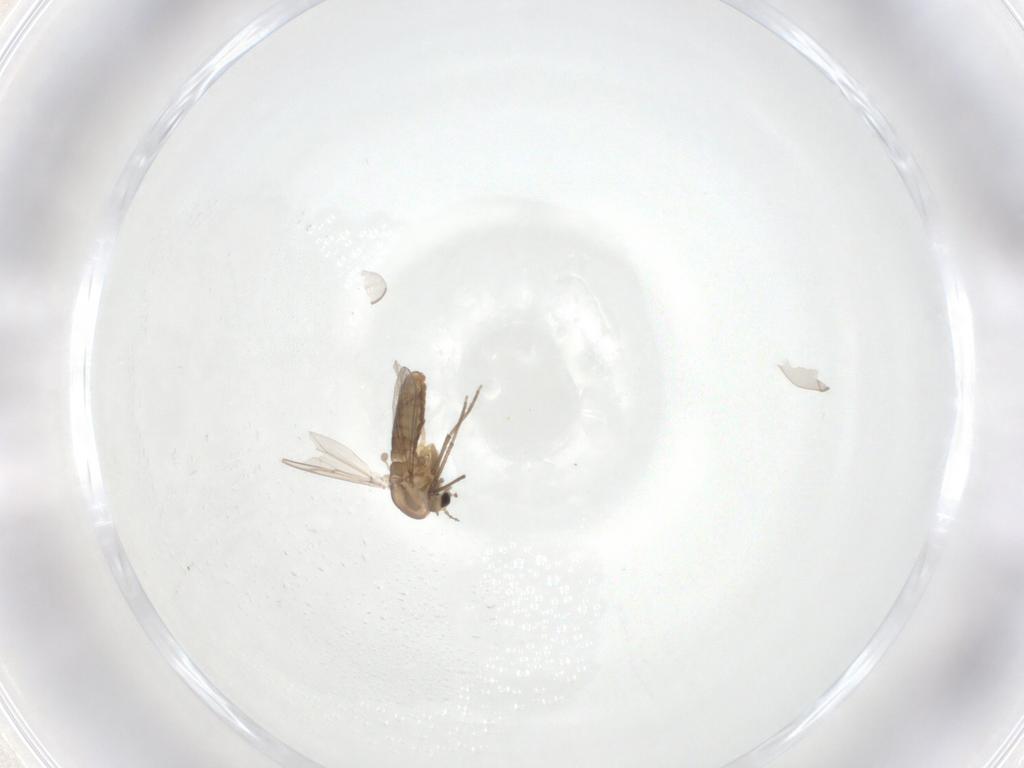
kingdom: Animalia
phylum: Arthropoda
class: Insecta
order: Diptera
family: Chironomidae
